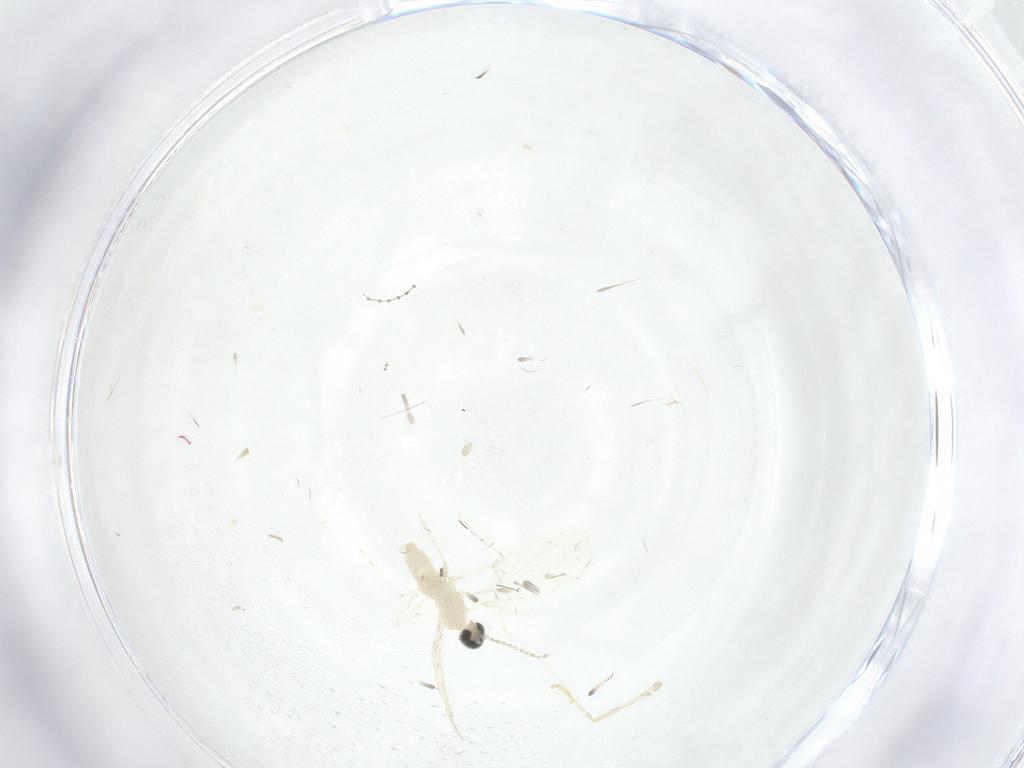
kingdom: Animalia
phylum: Arthropoda
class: Insecta
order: Diptera
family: Cecidomyiidae
